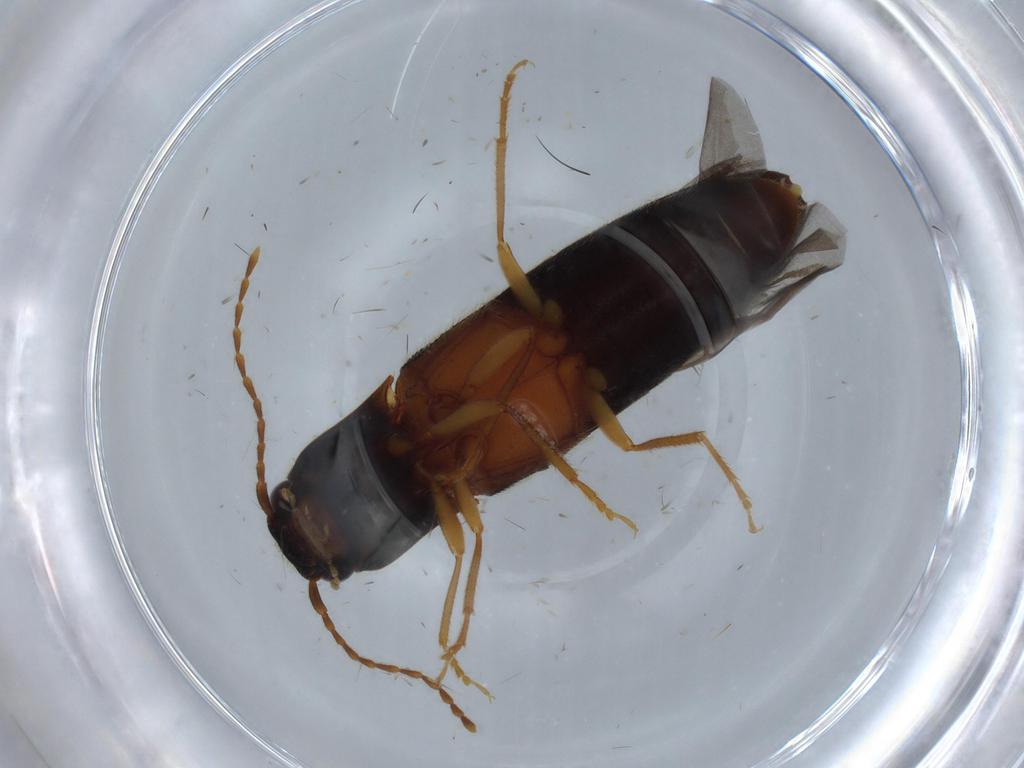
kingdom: Animalia
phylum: Arthropoda
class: Insecta
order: Coleoptera
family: Elateridae
